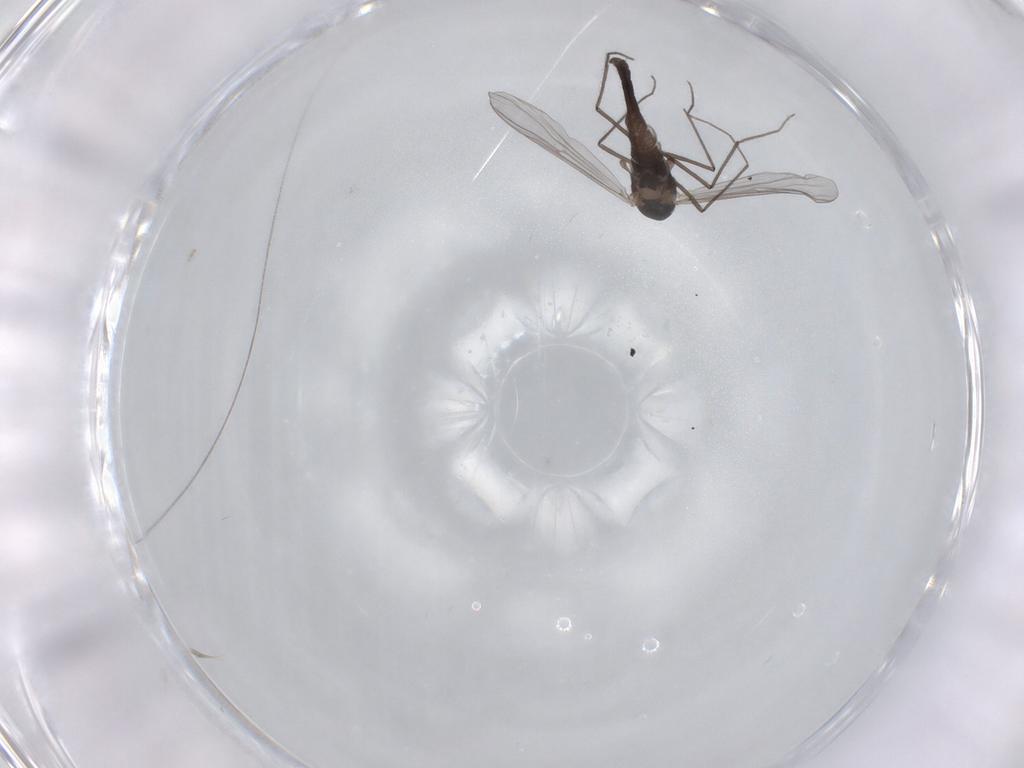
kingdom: Animalia
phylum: Arthropoda
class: Insecta
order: Diptera
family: Chironomidae
